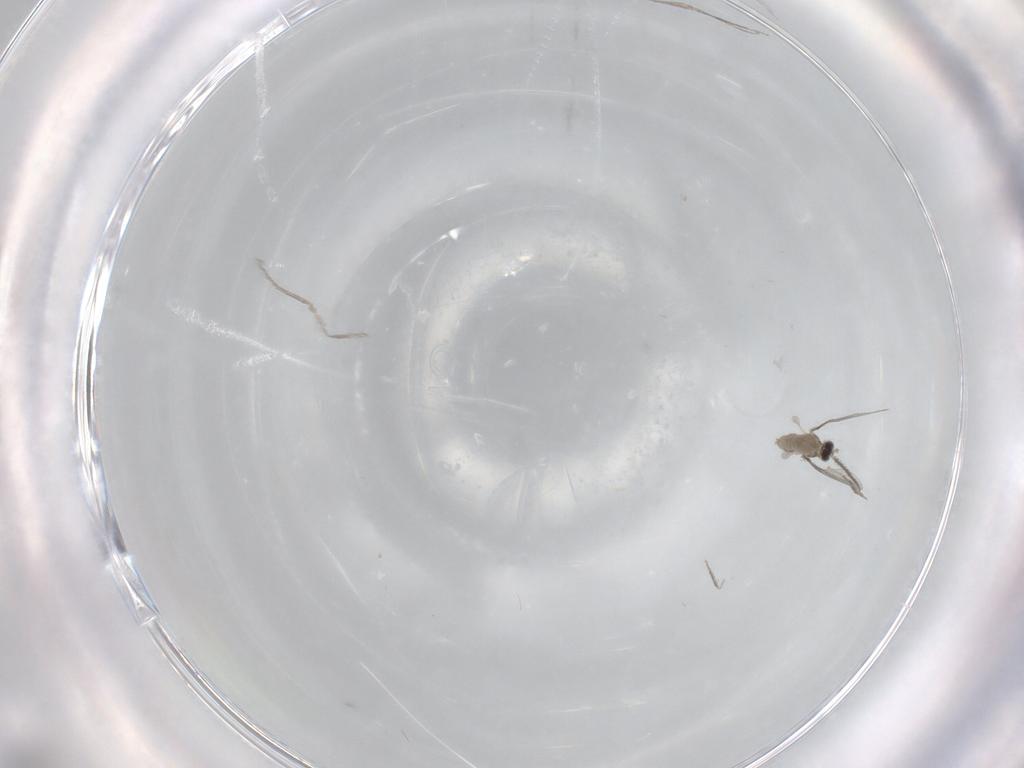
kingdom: Animalia
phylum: Arthropoda
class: Insecta
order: Diptera
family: Cecidomyiidae
